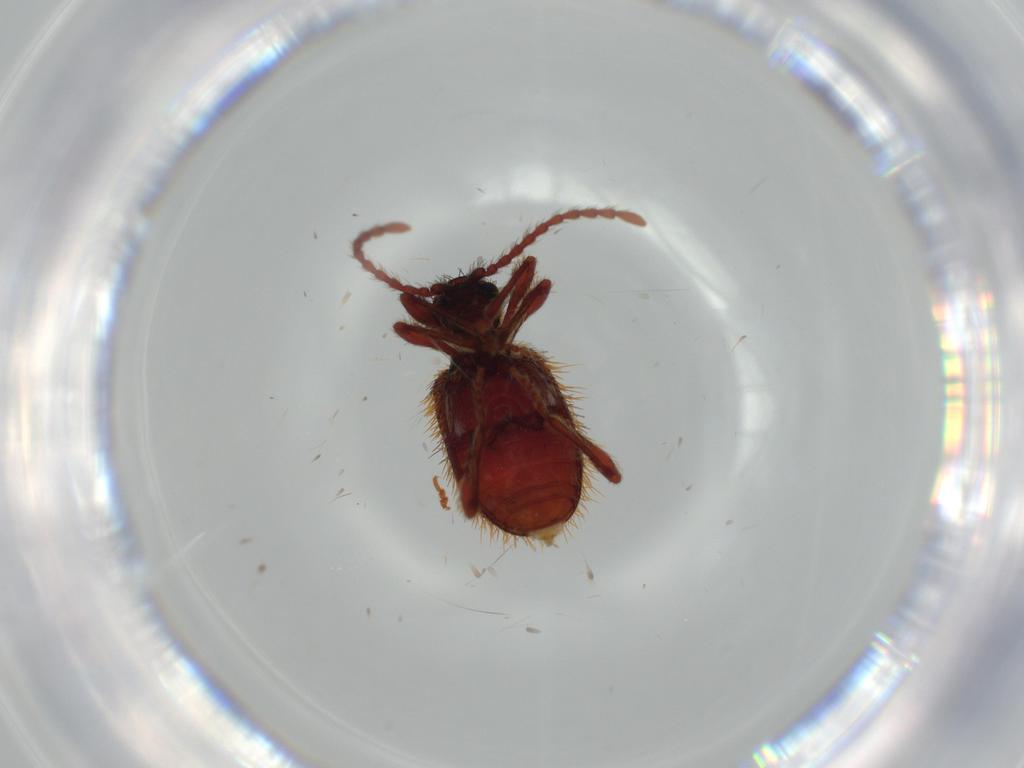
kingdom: Animalia
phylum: Arthropoda
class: Insecta
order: Coleoptera
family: Ptinidae
